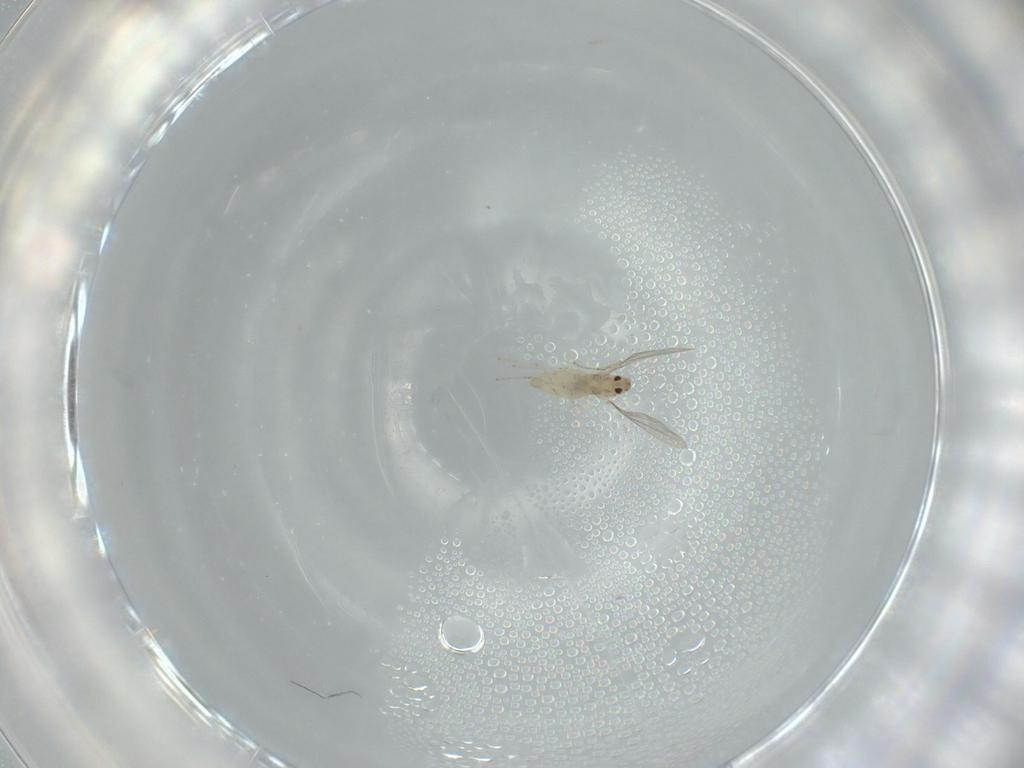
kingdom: Animalia
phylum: Arthropoda
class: Insecta
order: Diptera
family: Cecidomyiidae
